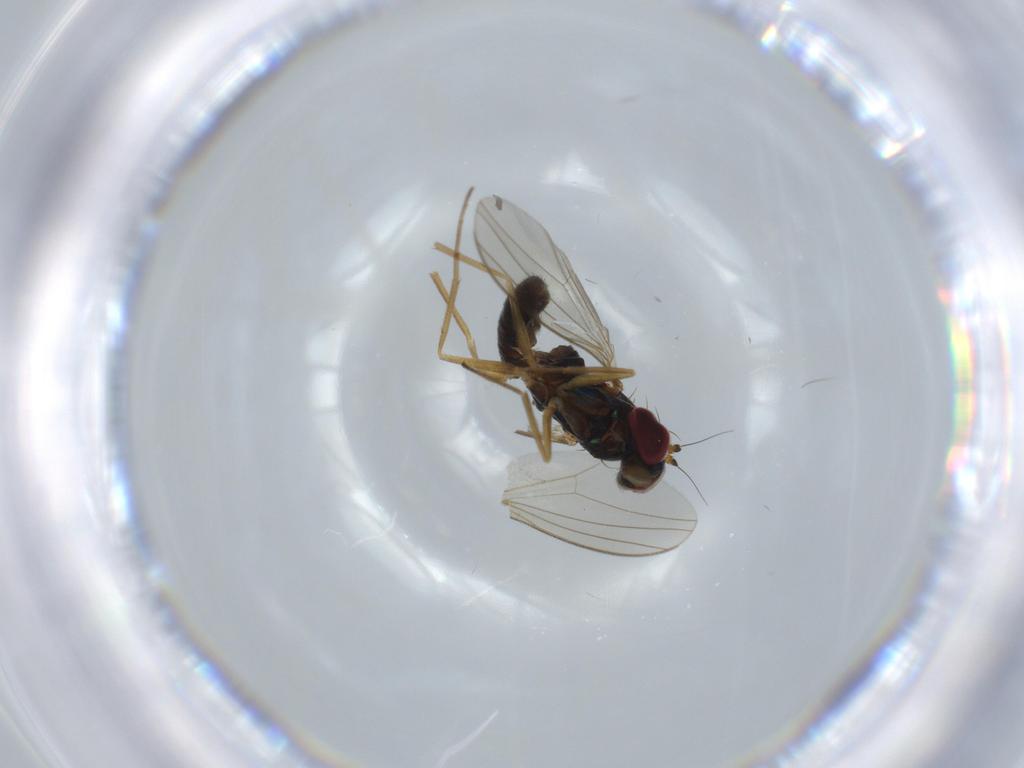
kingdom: Animalia
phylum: Arthropoda
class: Insecta
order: Diptera
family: Dolichopodidae
